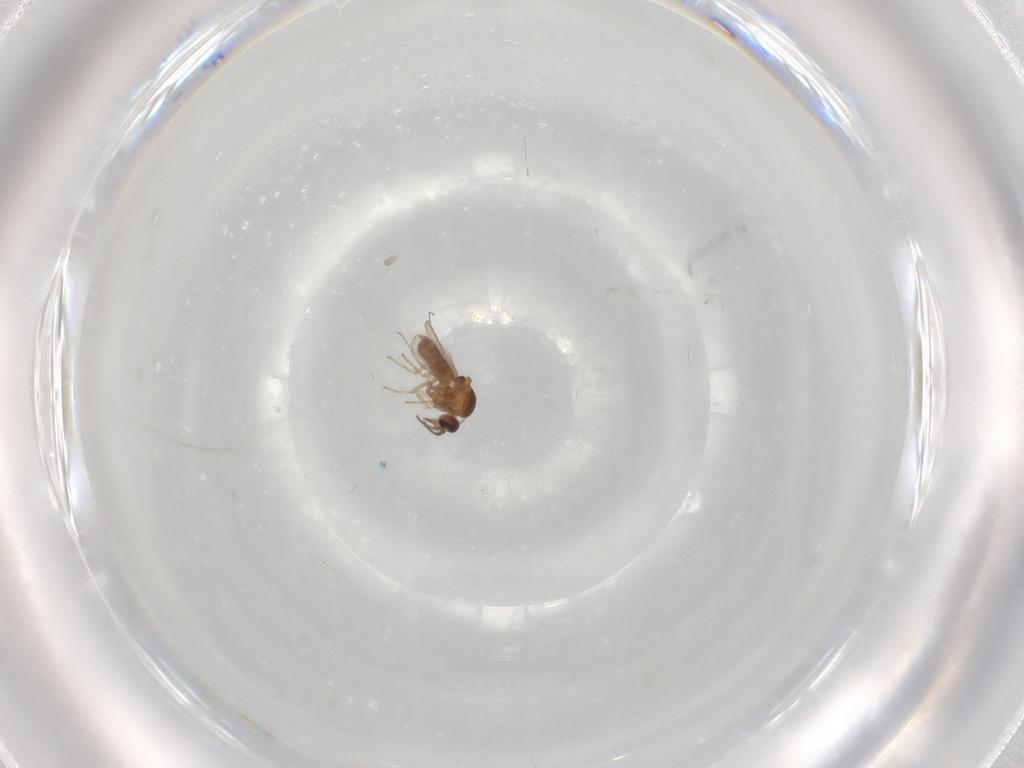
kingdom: Animalia
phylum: Arthropoda
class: Insecta
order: Diptera
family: Ceratopogonidae
